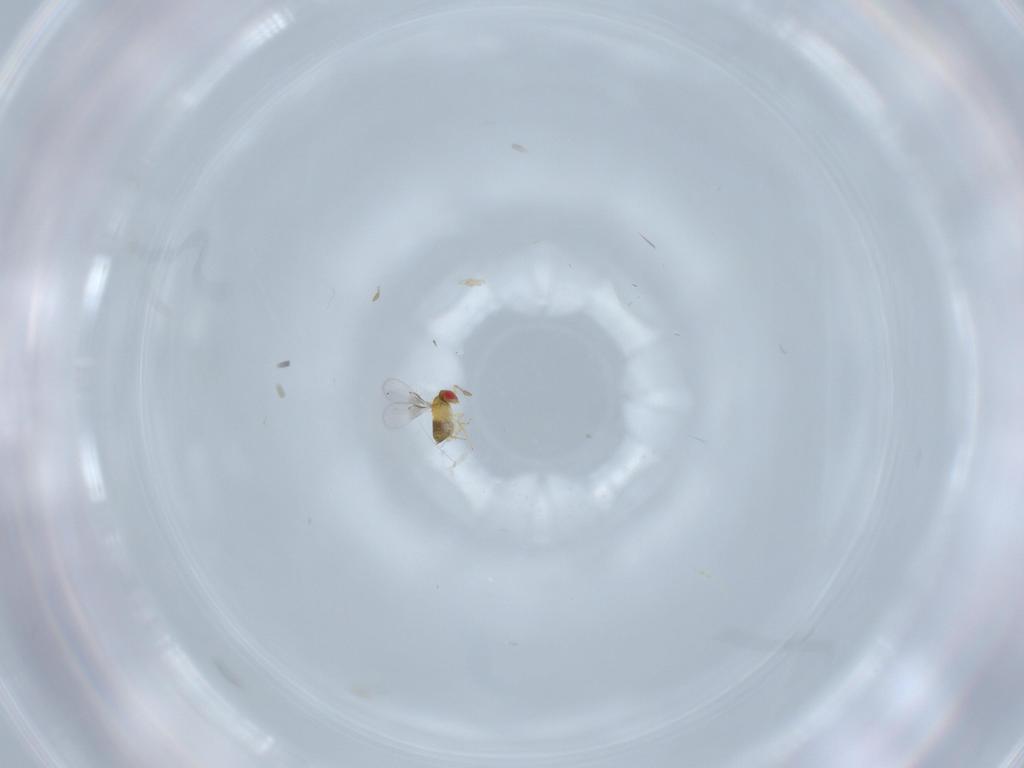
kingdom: Animalia
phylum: Arthropoda
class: Insecta
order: Hymenoptera
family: Trichogrammatidae
